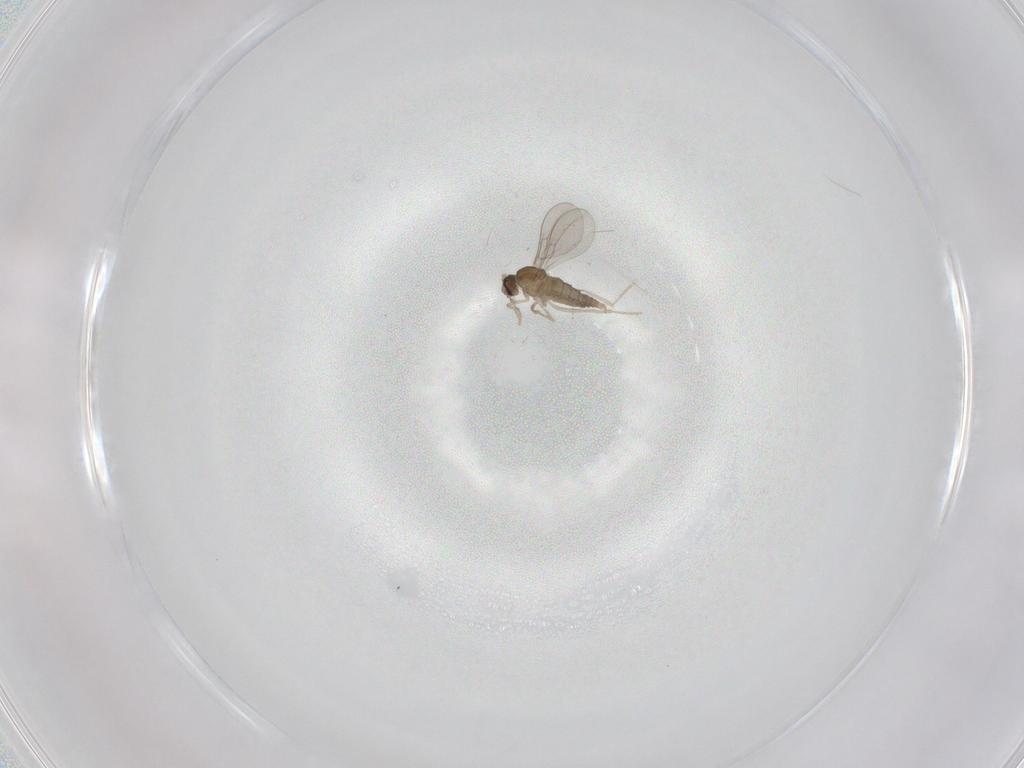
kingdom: Animalia
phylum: Arthropoda
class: Insecta
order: Diptera
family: Cecidomyiidae
